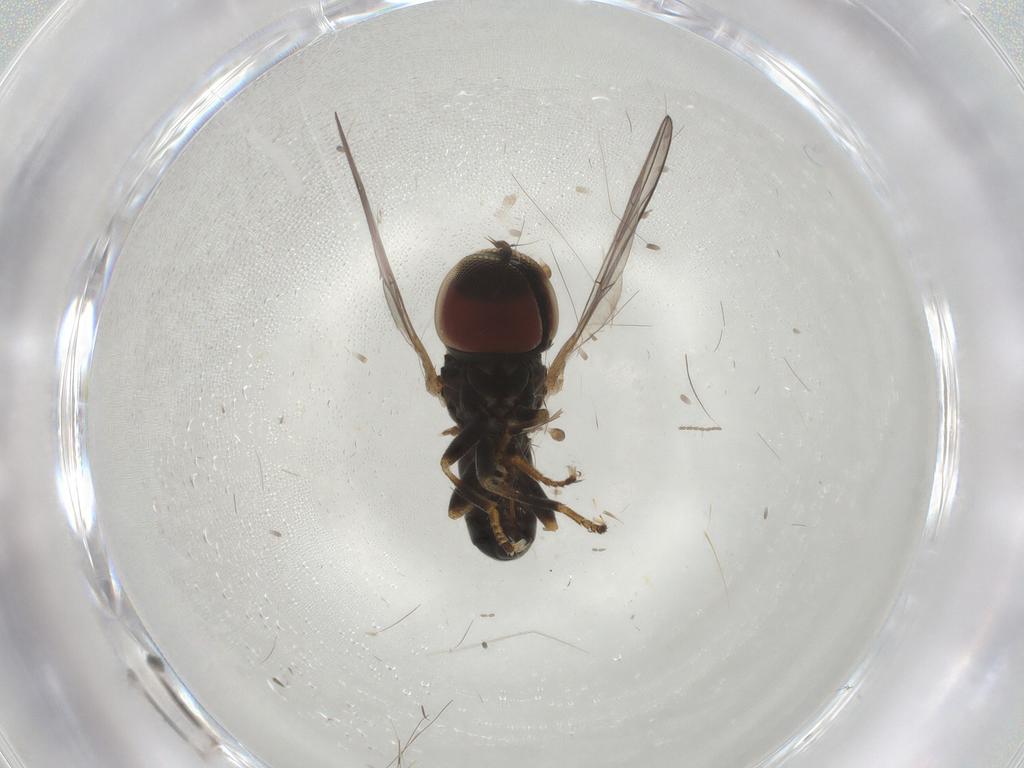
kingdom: Animalia
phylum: Arthropoda
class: Insecta
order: Diptera
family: Pipunculidae
